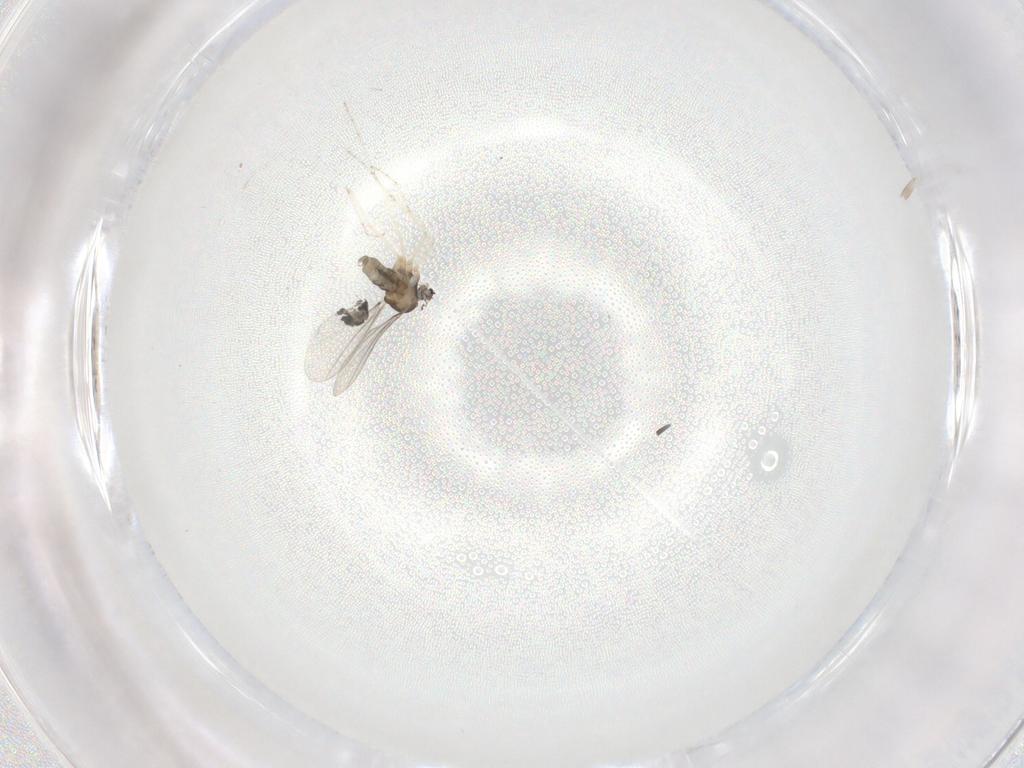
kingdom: Animalia
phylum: Arthropoda
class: Insecta
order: Diptera
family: Cecidomyiidae
